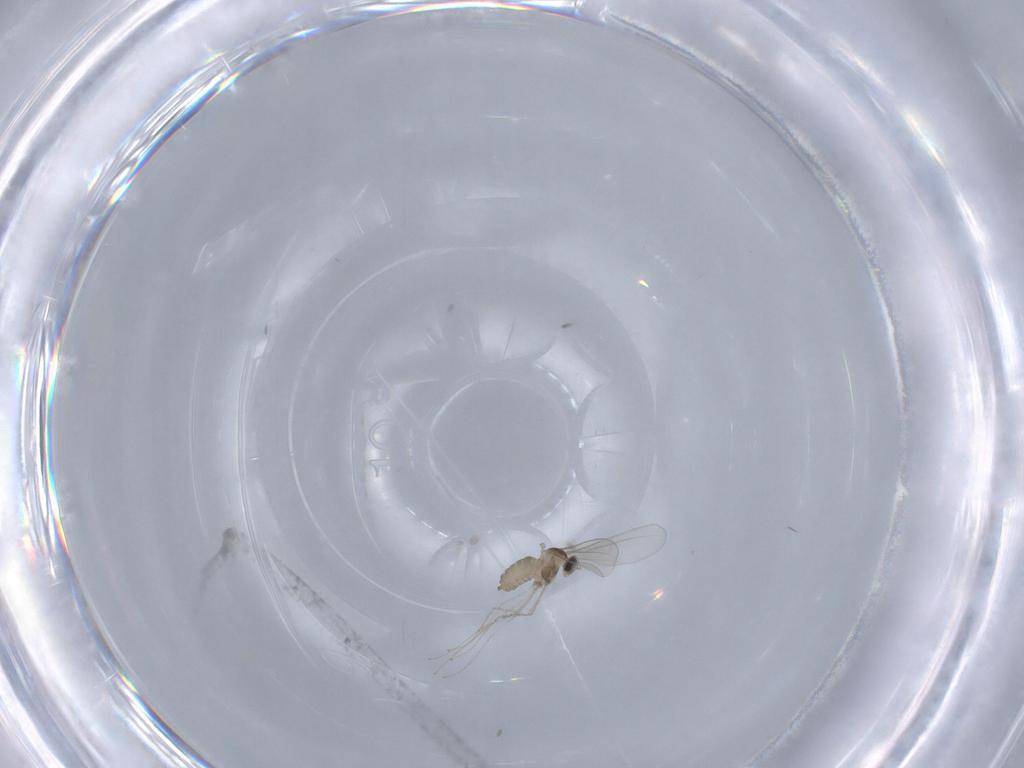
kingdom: Animalia
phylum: Arthropoda
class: Insecta
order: Diptera
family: Cecidomyiidae
